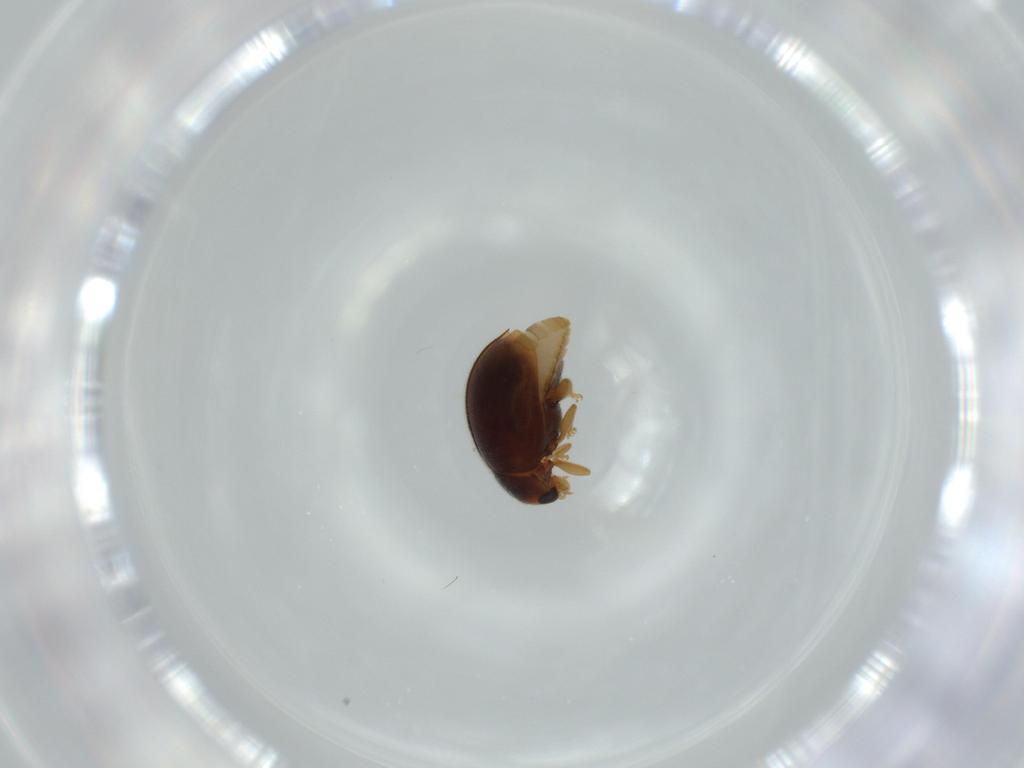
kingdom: Animalia
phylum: Arthropoda
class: Insecta
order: Coleoptera
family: Coccinellidae
